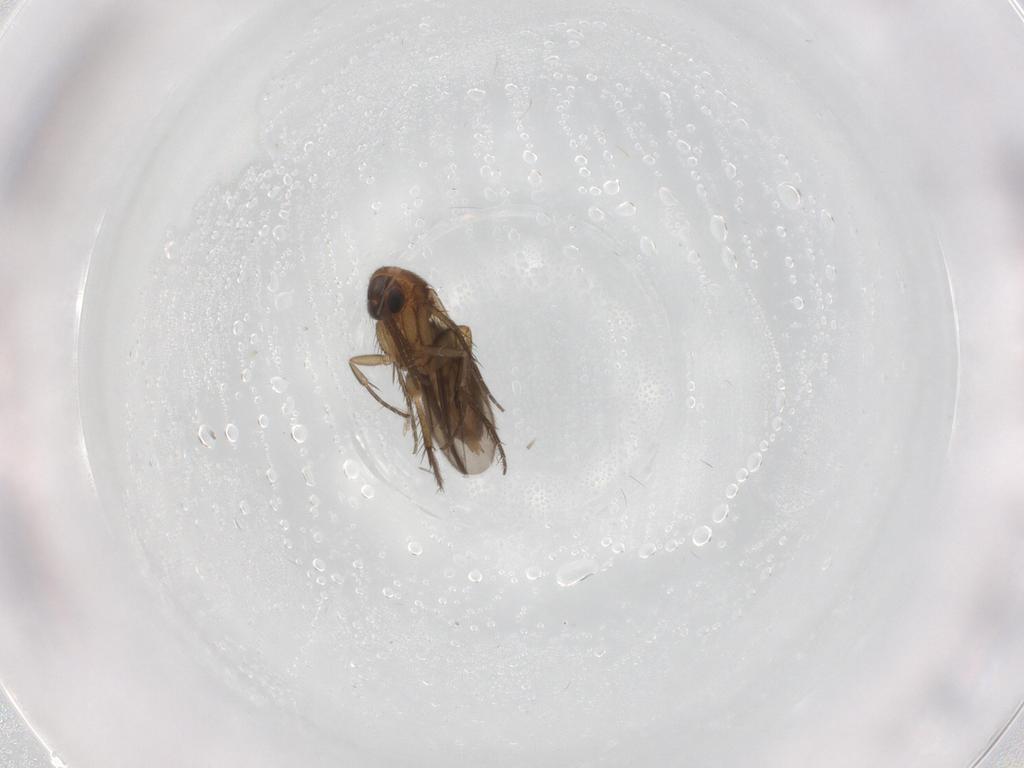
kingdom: Animalia
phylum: Arthropoda
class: Insecta
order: Diptera
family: Mycetophilidae
